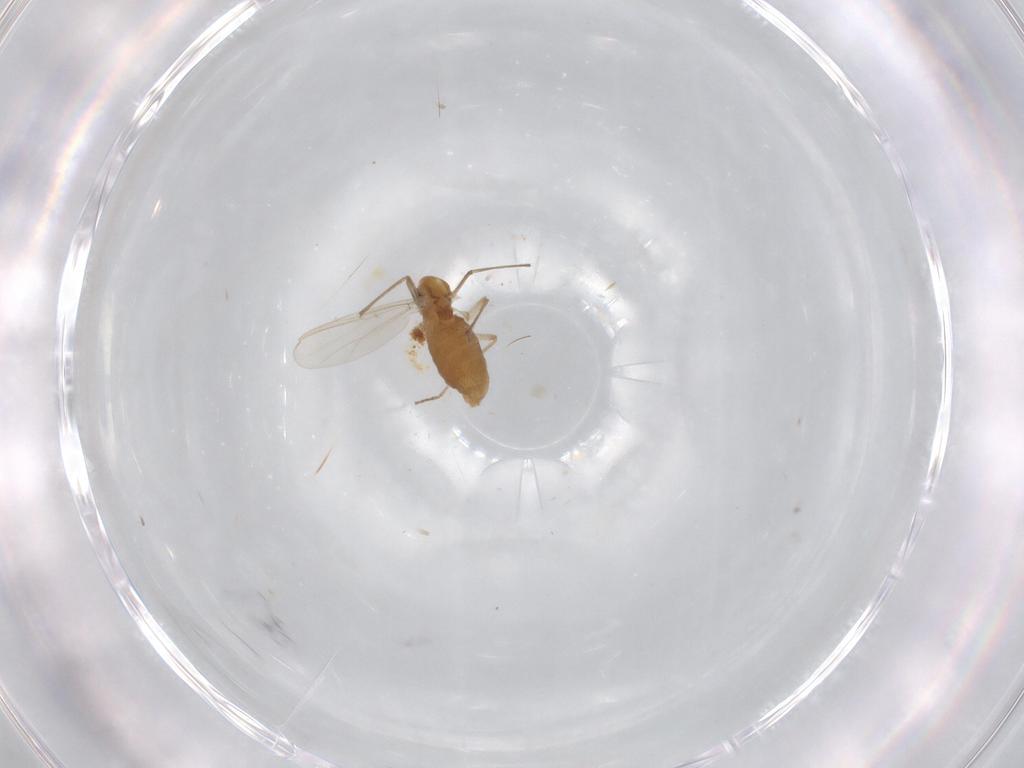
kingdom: Animalia
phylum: Arthropoda
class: Insecta
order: Diptera
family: Chironomidae
